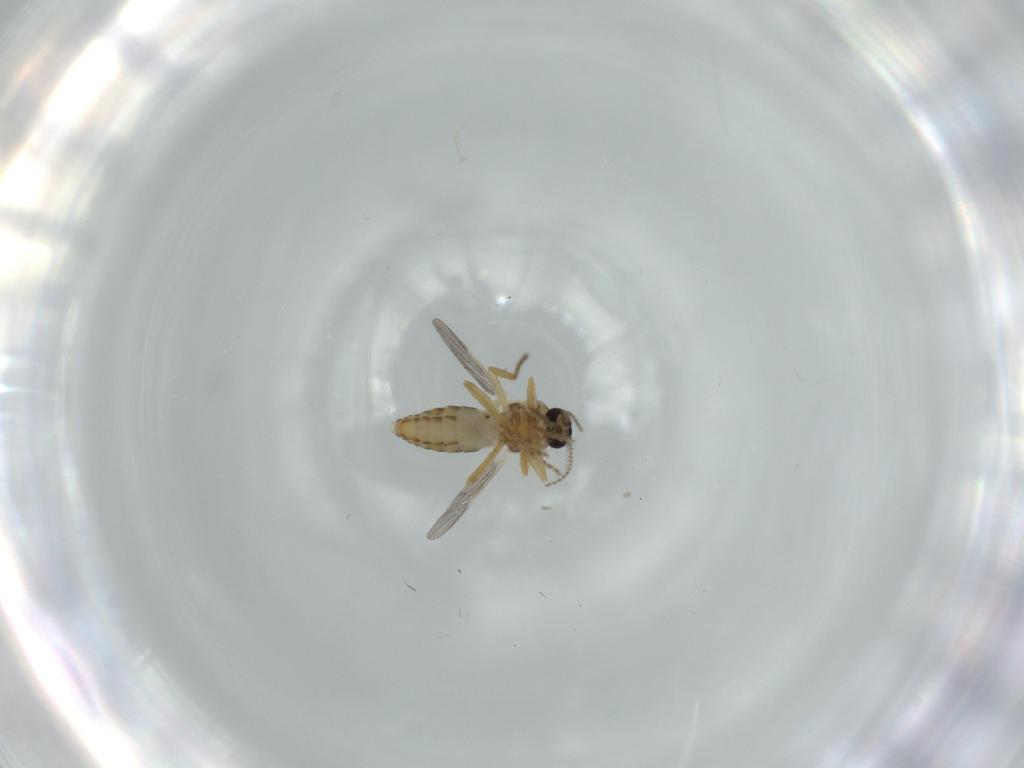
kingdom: Animalia
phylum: Arthropoda
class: Insecta
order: Diptera
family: Ceratopogonidae
